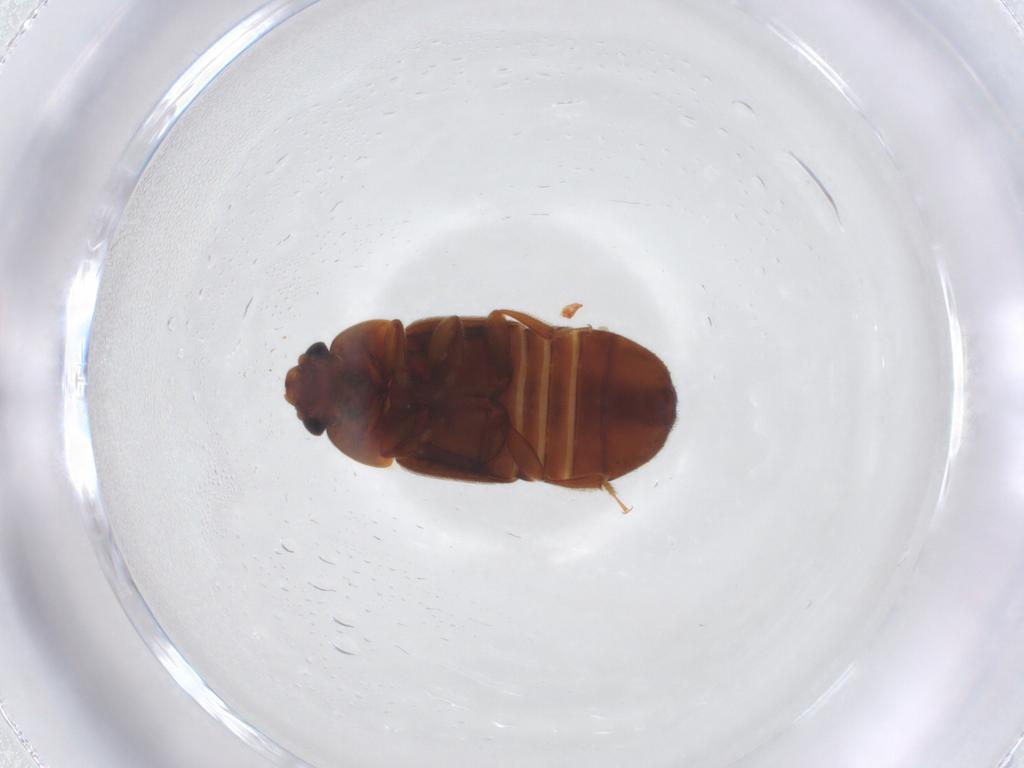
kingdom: Animalia
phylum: Arthropoda
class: Insecta
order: Coleoptera
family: Nitidulidae
